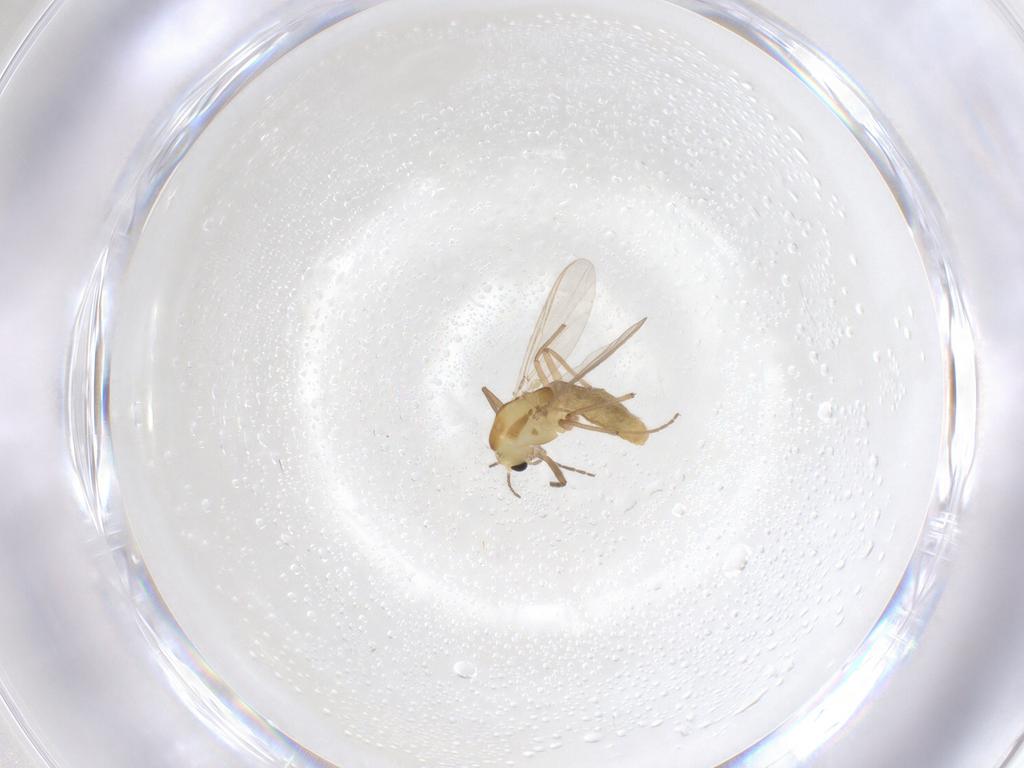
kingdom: Animalia
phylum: Arthropoda
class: Insecta
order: Diptera
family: Chironomidae
